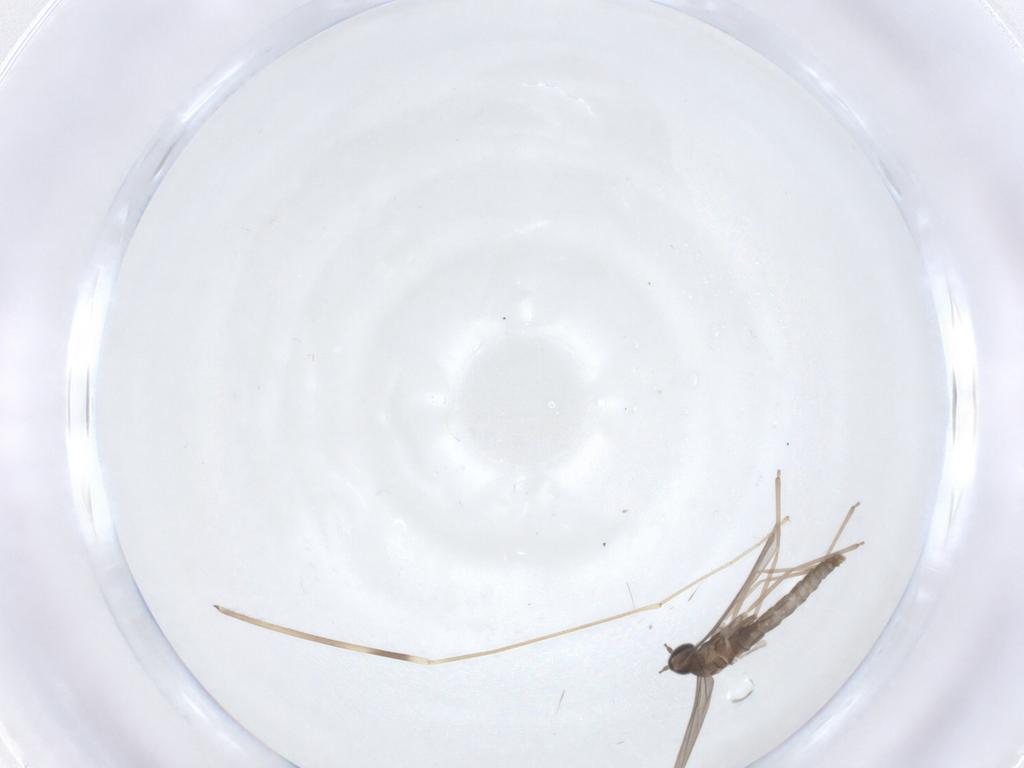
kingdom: Animalia
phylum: Arthropoda
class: Insecta
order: Diptera
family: Cecidomyiidae
